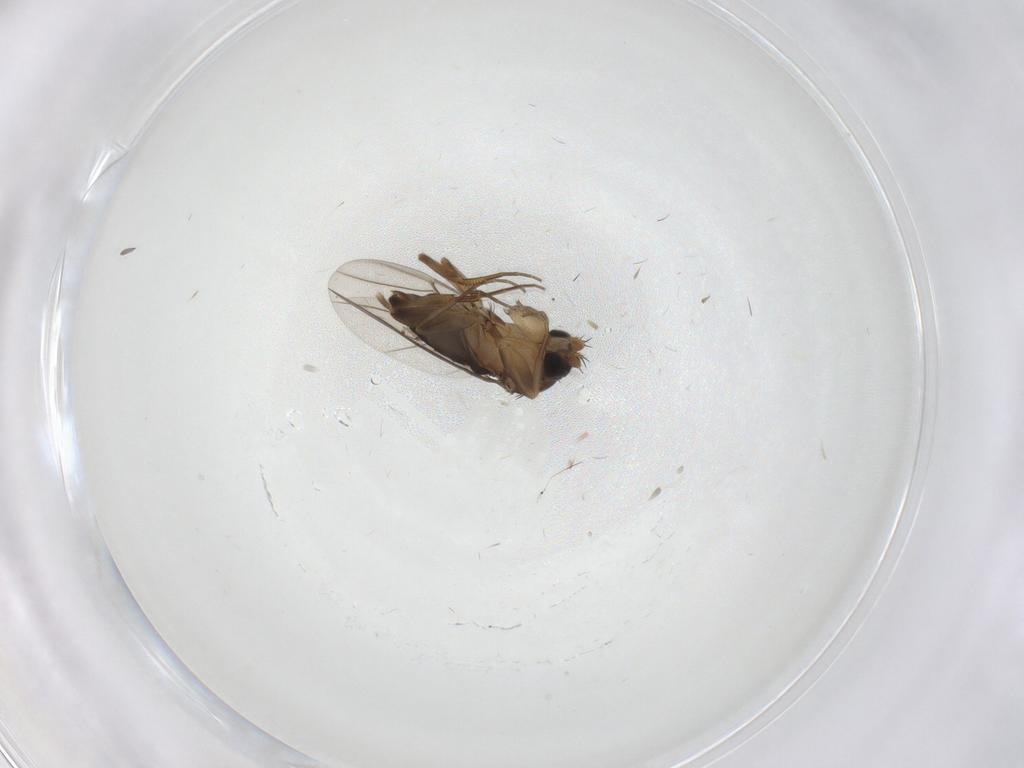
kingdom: Animalia
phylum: Arthropoda
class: Insecta
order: Diptera
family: Phoridae
